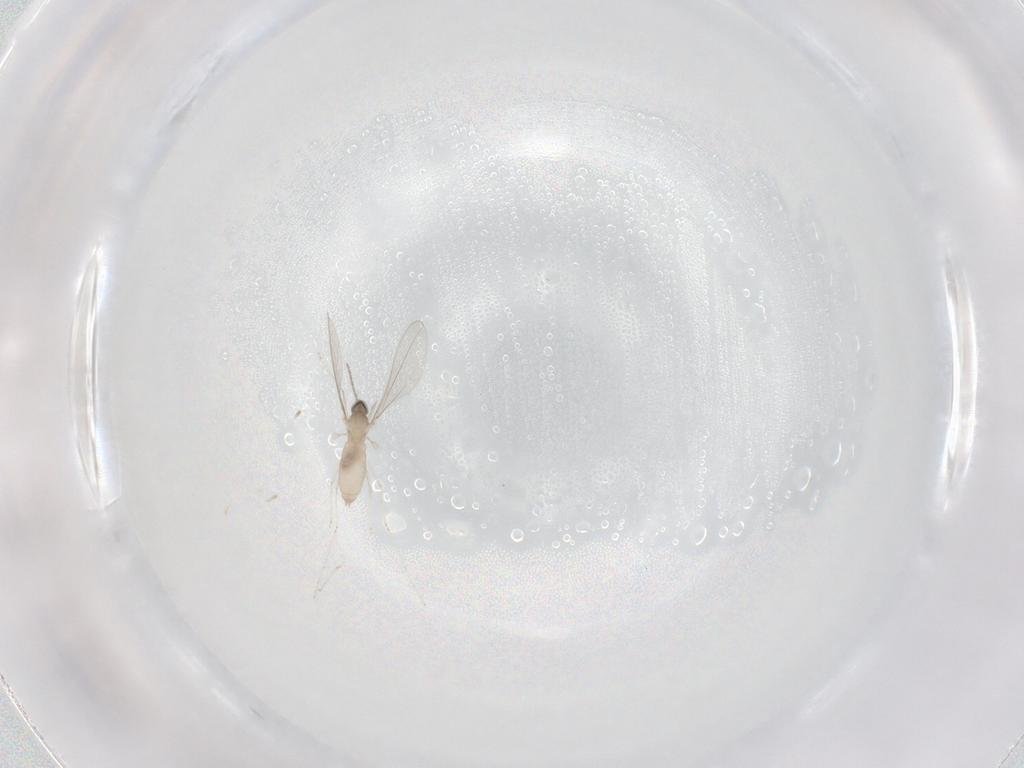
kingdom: Animalia
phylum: Arthropoda
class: Insecta
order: Diptera
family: Cecidomyiidae
